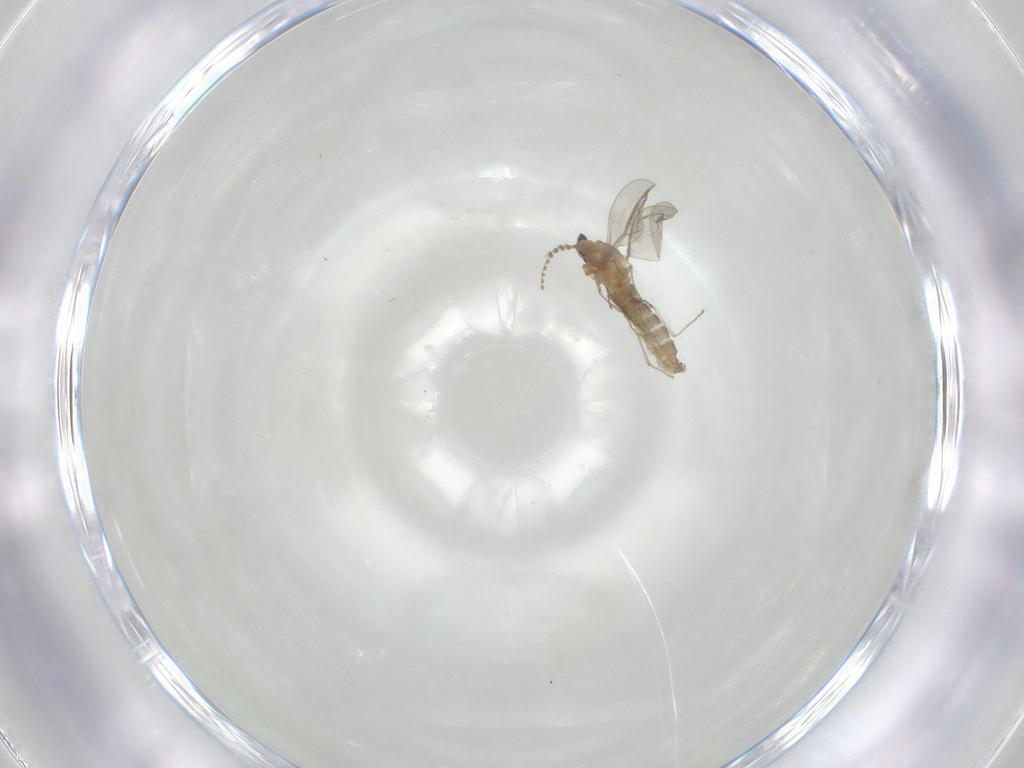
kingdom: Animalia
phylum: Arthropoda
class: Insecta
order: Diptera
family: Cecidomyiidae
